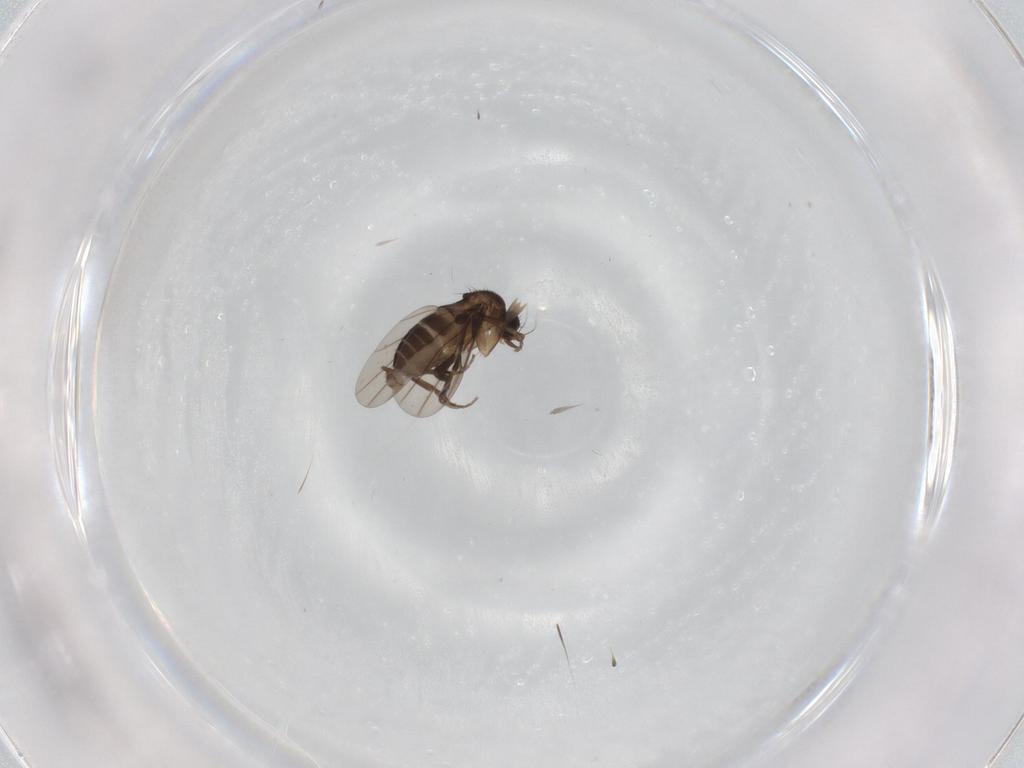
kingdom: Animalia
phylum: Arthropoda
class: Insecta
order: Diptera
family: Phoridae
